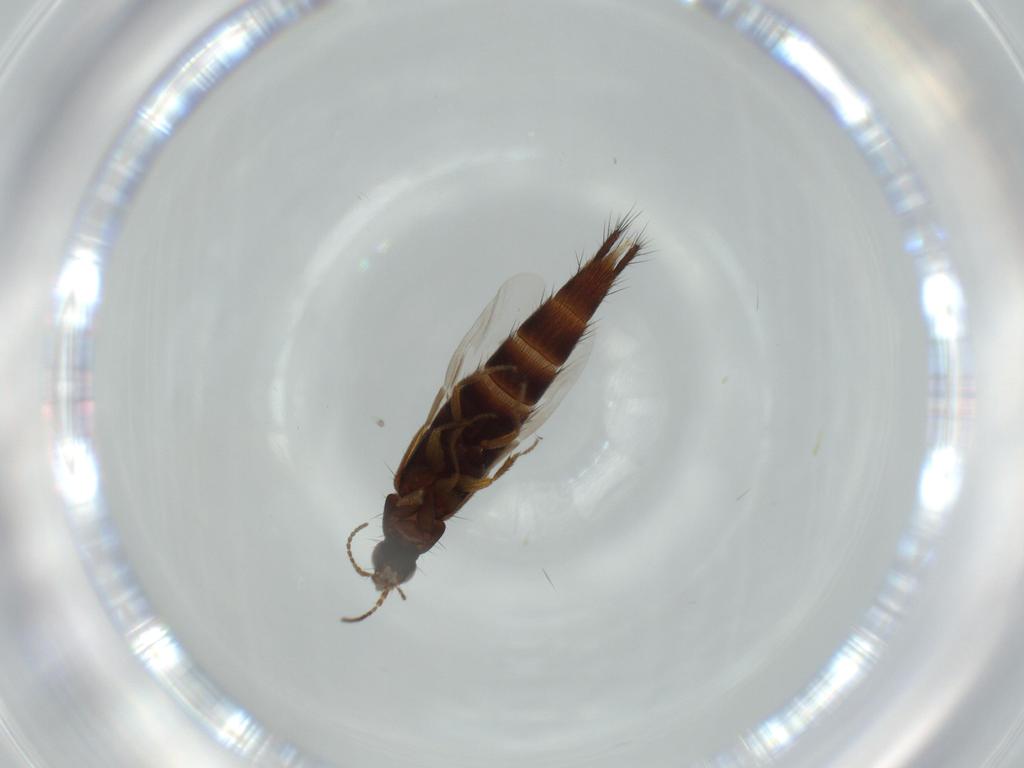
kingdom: Animalia
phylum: Arthropoda
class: Insecta
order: Coleoptera
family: Staphylinidae
